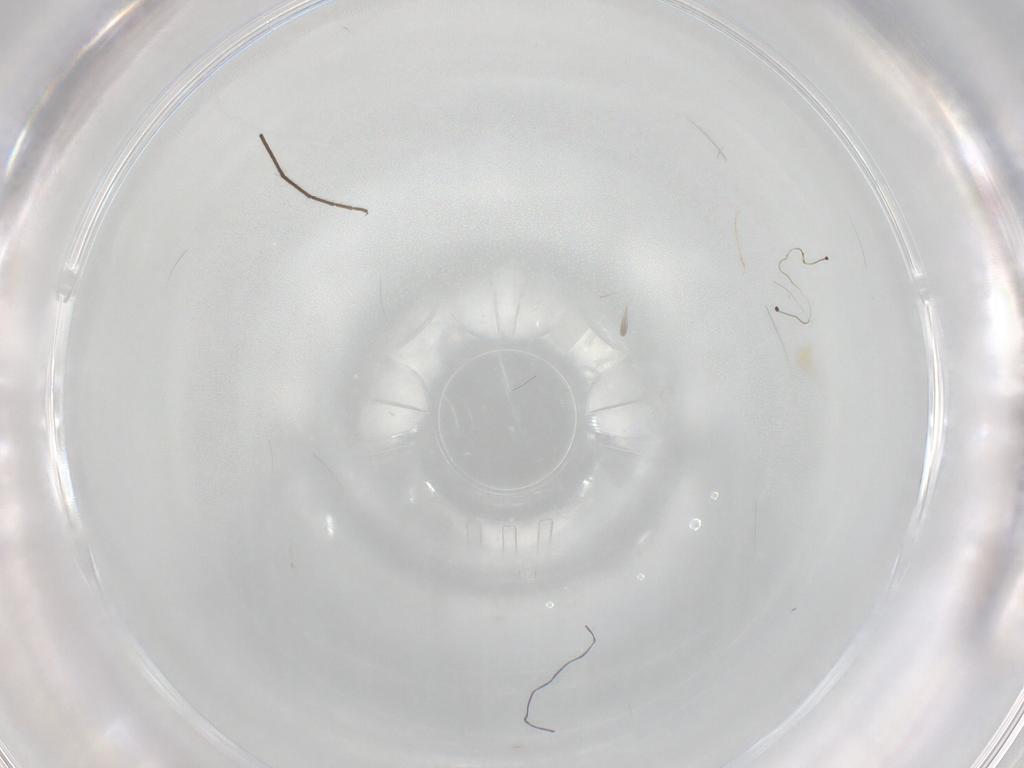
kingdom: Animalia
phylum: Arthropoda
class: Arachnida
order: Trombidiformes
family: Eupodidae
